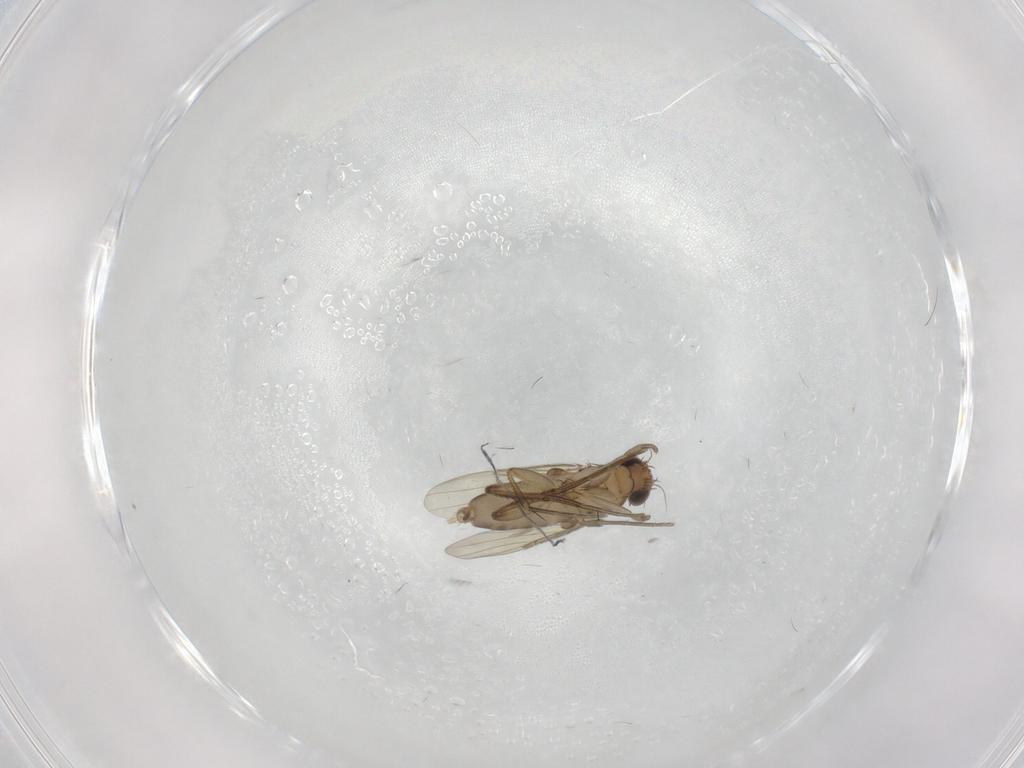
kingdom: Animalia
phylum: Arthropoda
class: Insecta
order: Diptera
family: Phoridae
